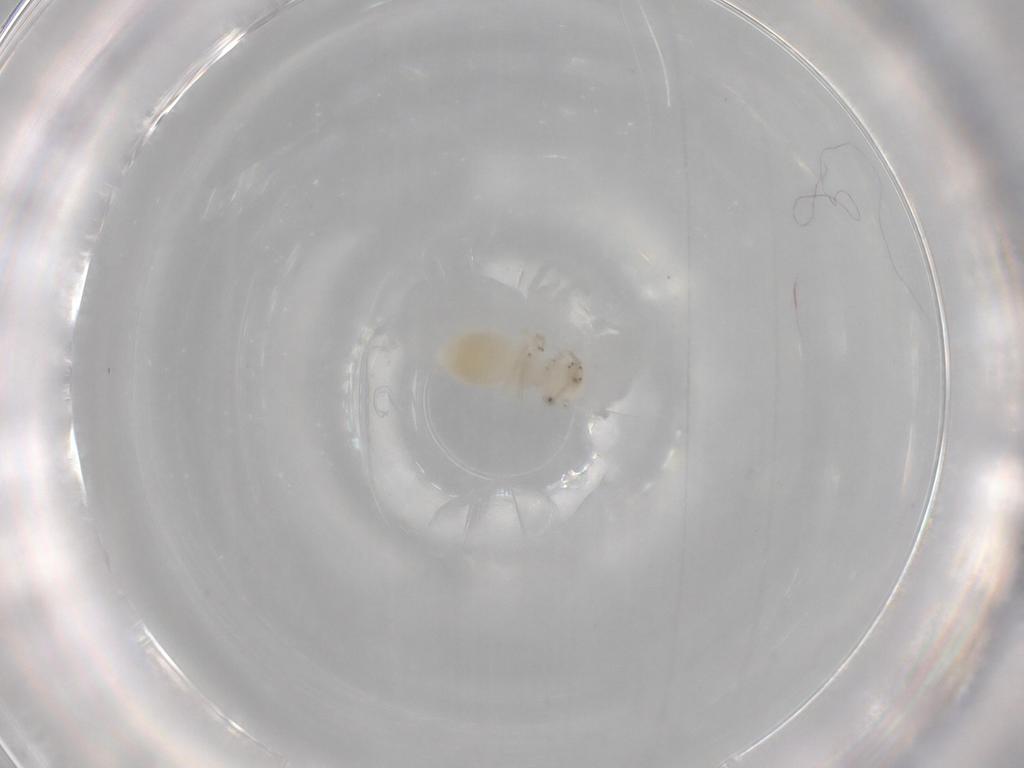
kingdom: Animalia
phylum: Arthropoda
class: Insecta
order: Psocodea
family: Caeciliusidae
